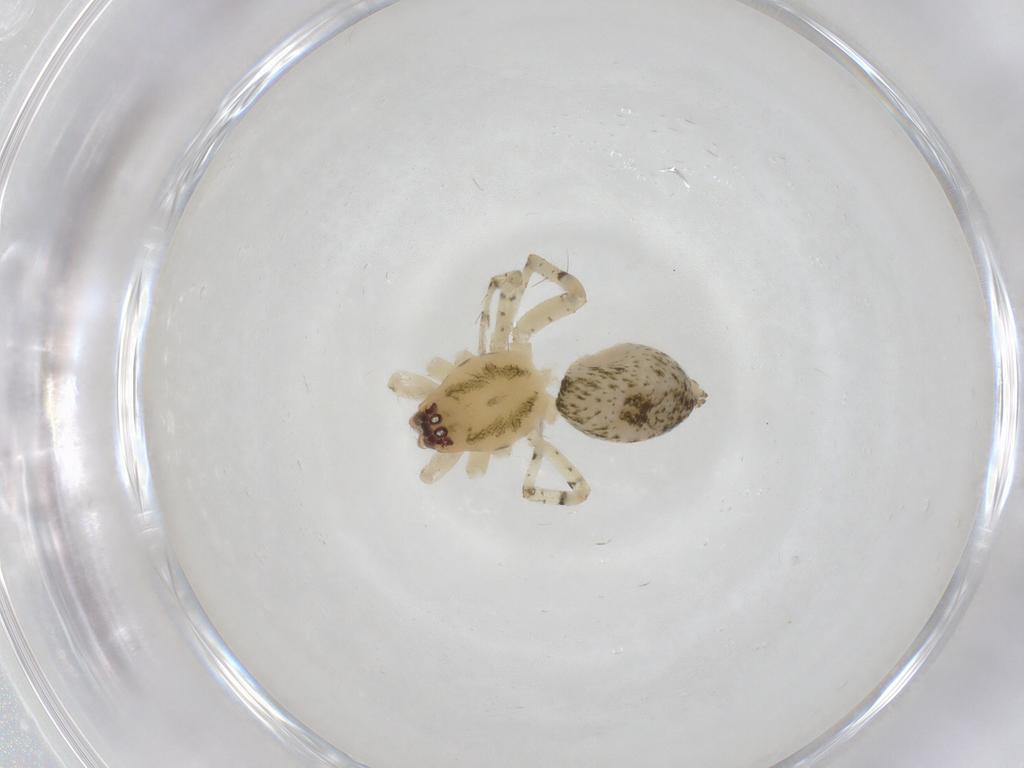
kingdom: Animalia
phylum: Arthropoda
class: Arachnida
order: Araneae
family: Anyphaenidae
